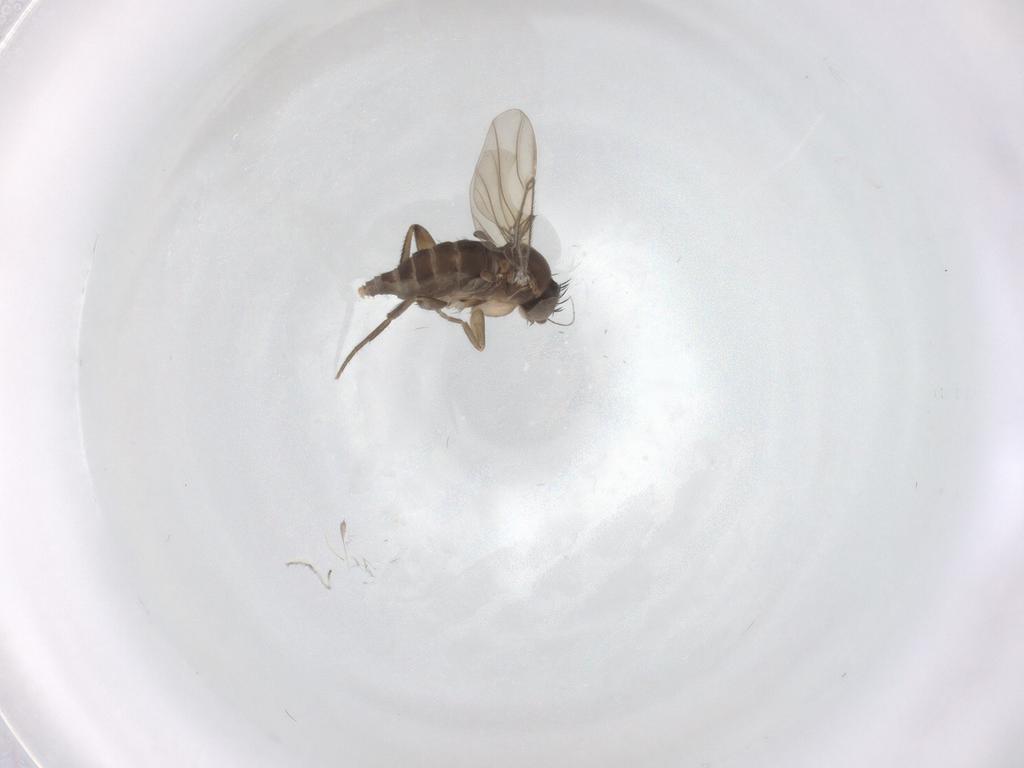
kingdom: Animalia
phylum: Arthropoda
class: Insecta
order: Diptera
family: Phoridae
